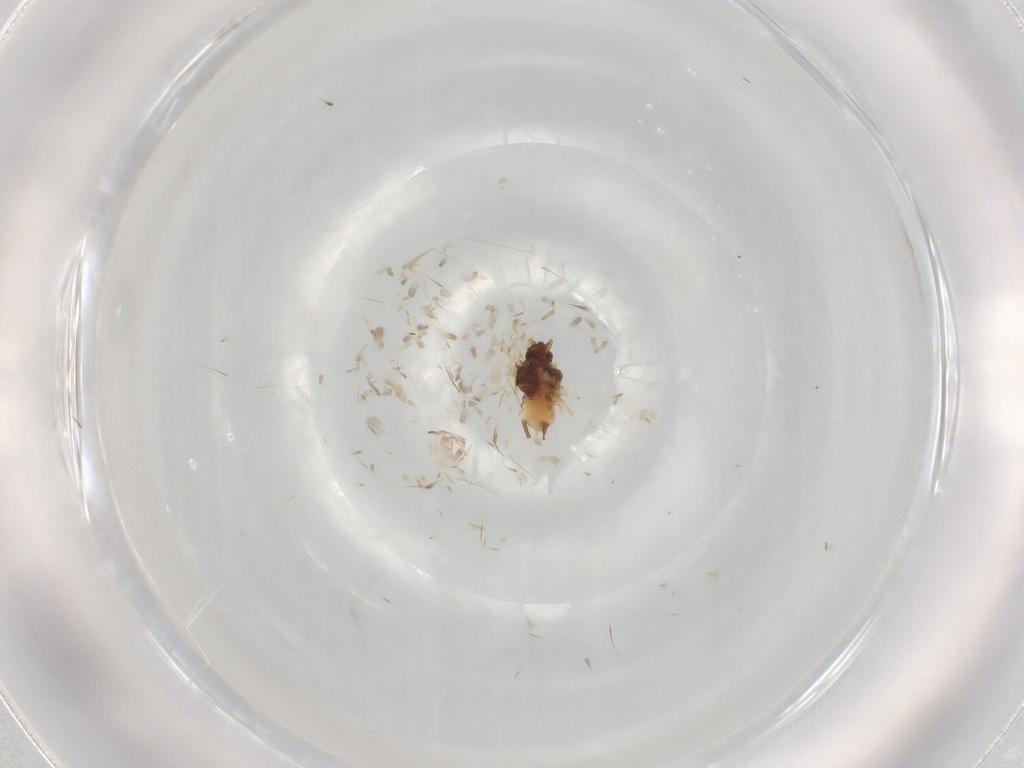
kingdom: Animalia
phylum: Arthropoda
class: Insecta
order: Hemiptera
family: Aphididae
